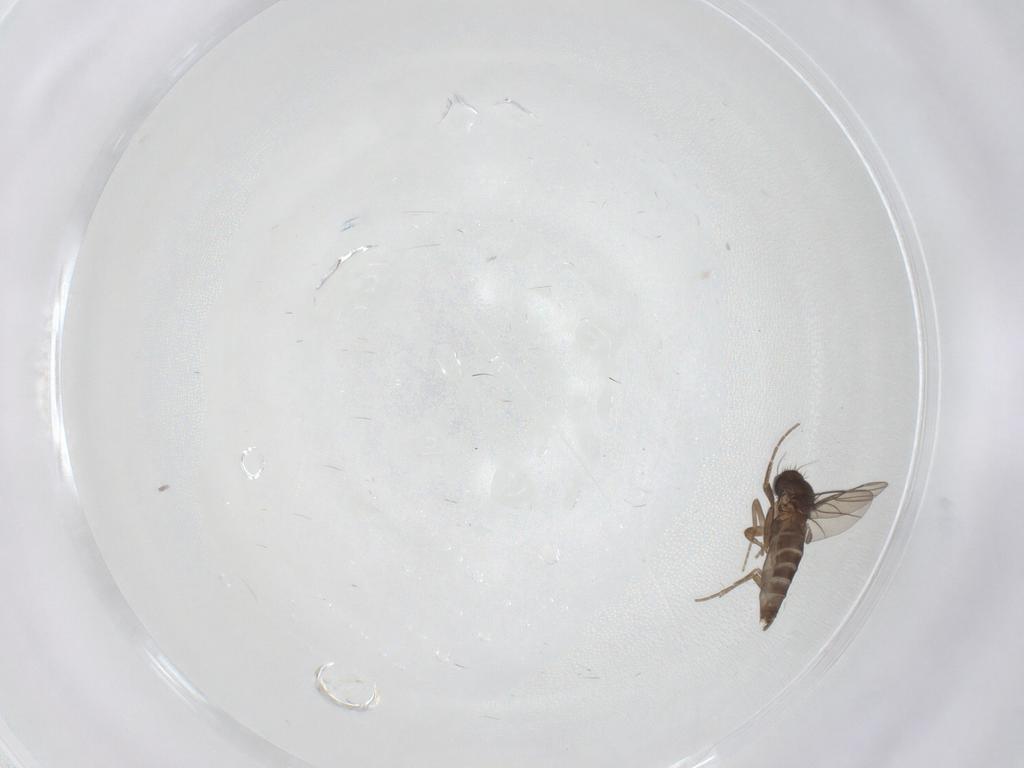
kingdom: Animalia
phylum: Arthropoda
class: Insecta
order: Diptera
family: Phoridae
